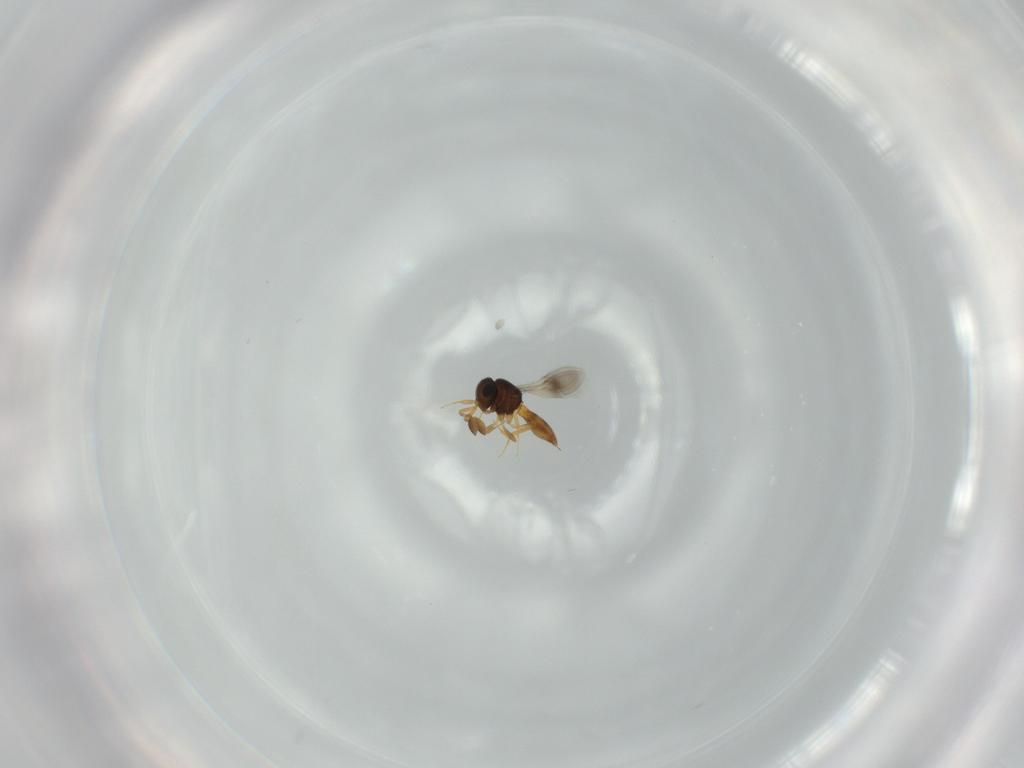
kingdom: Animalia
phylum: Arthropoda
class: Insecta
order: Hymenoptera
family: Scelionidae
